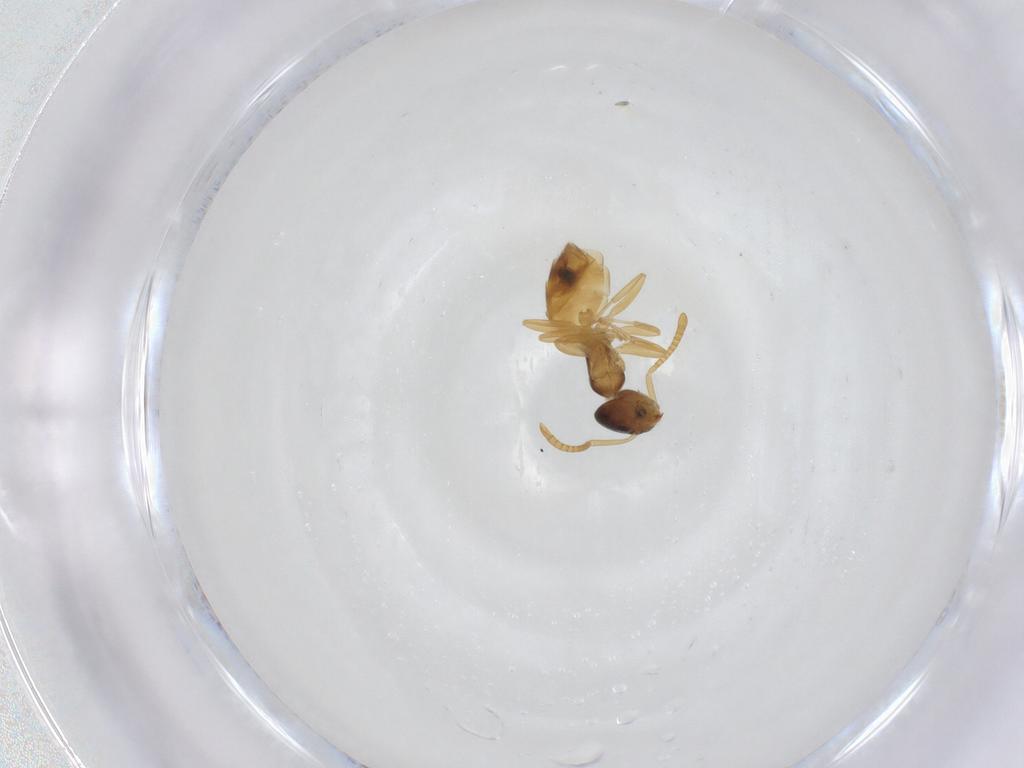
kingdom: Animalia
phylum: Arthropoda
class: Insecta
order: Hymenoptera
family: Formicidae
